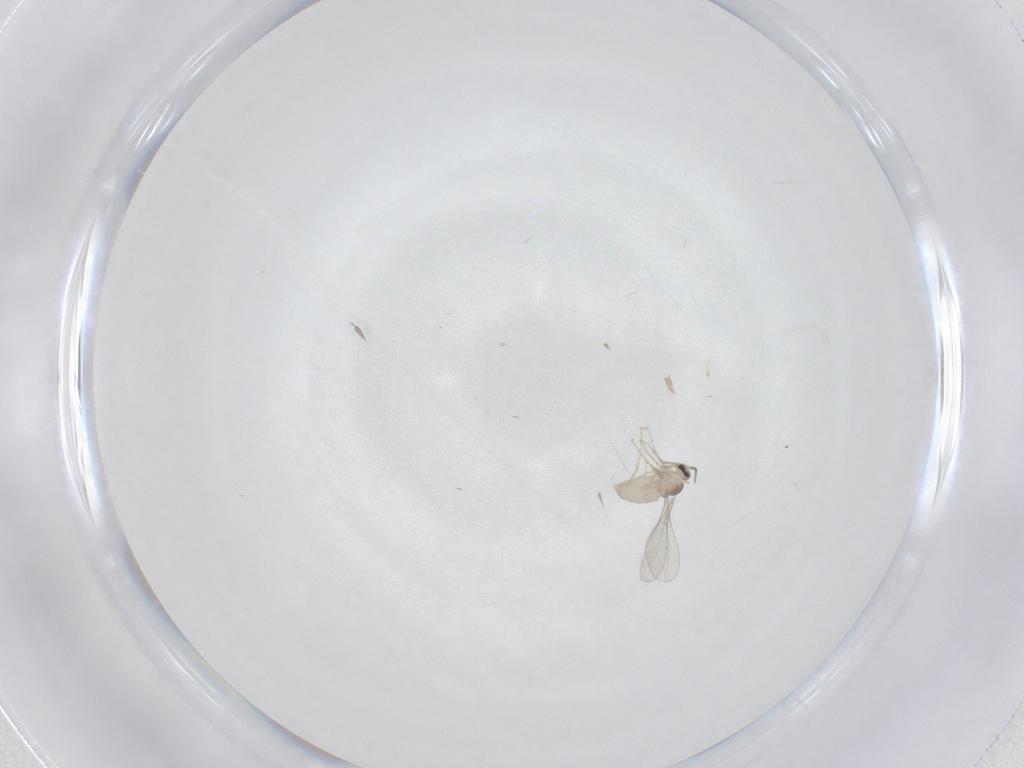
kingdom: Animalia
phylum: Arthropoda
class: Insecta
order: Diptera
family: Cecidomyiidae
